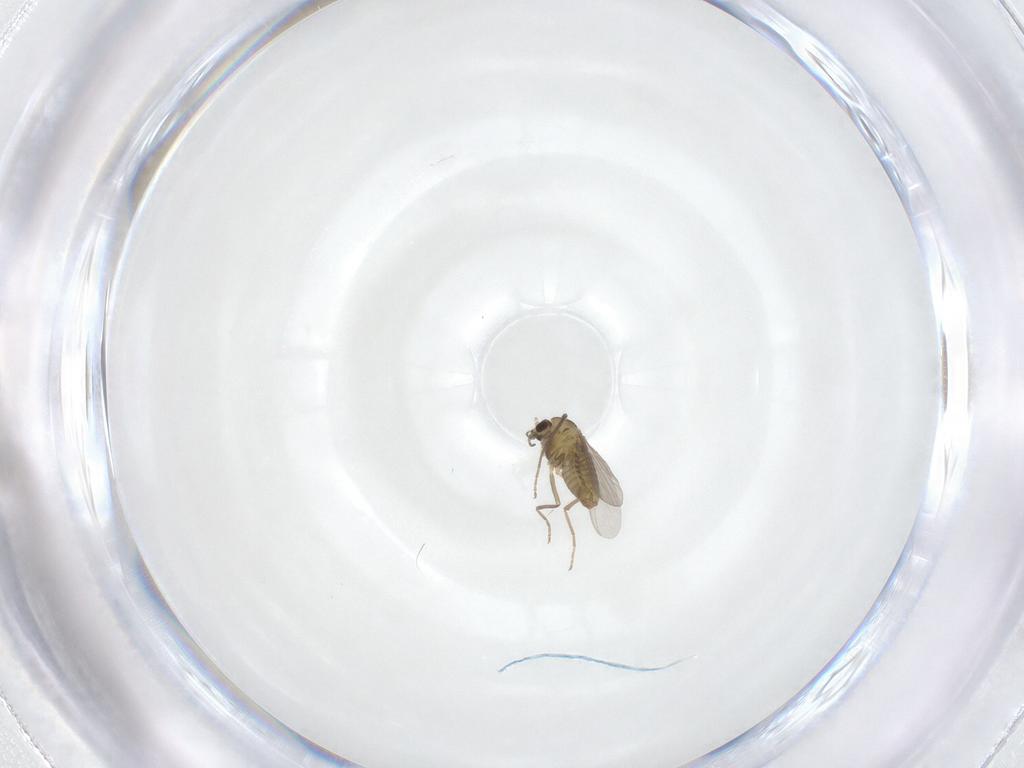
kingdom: Animalia
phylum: Arthropoda
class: Insecta
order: Diptera
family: Chironomidae
